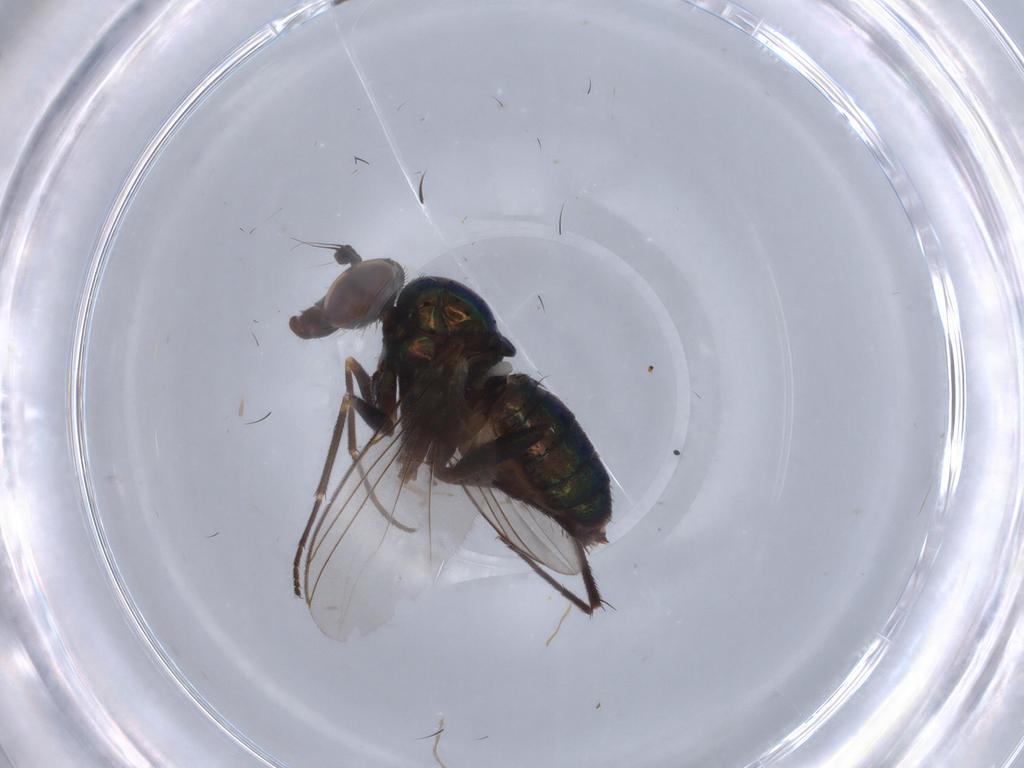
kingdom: Animalia
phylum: Arthropoda
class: Insecta
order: Diptera
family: Dolichopodidae
